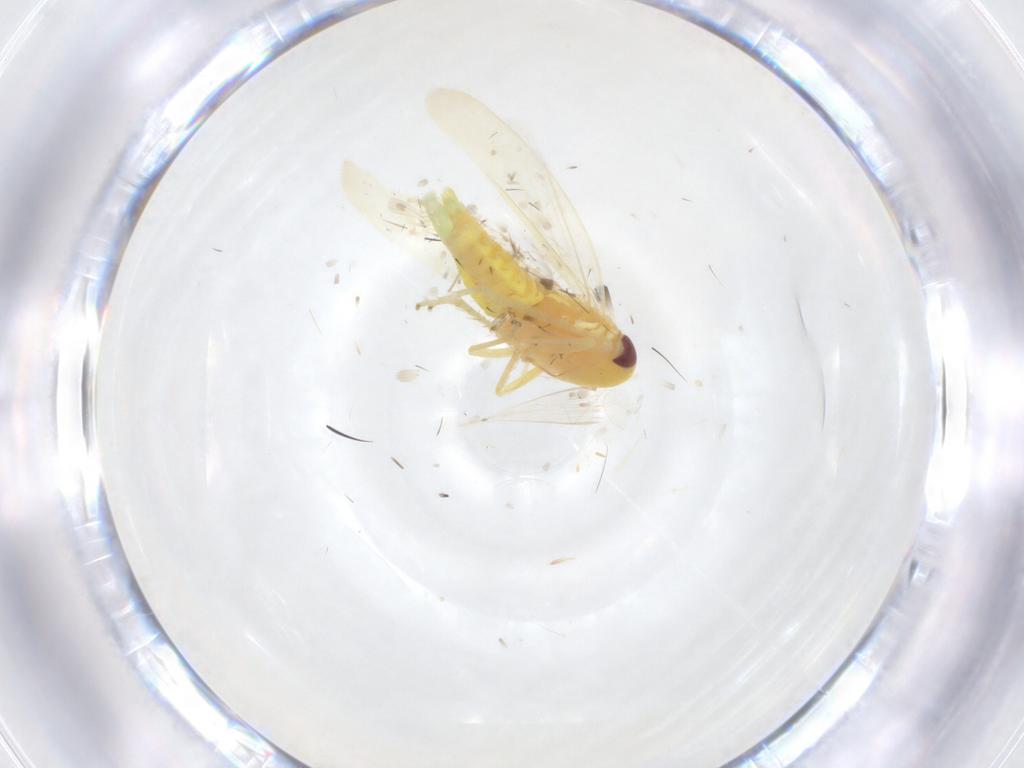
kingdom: Animalia
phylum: Arthropoda
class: Insecta
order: Hemiptera
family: Cicadellidae
